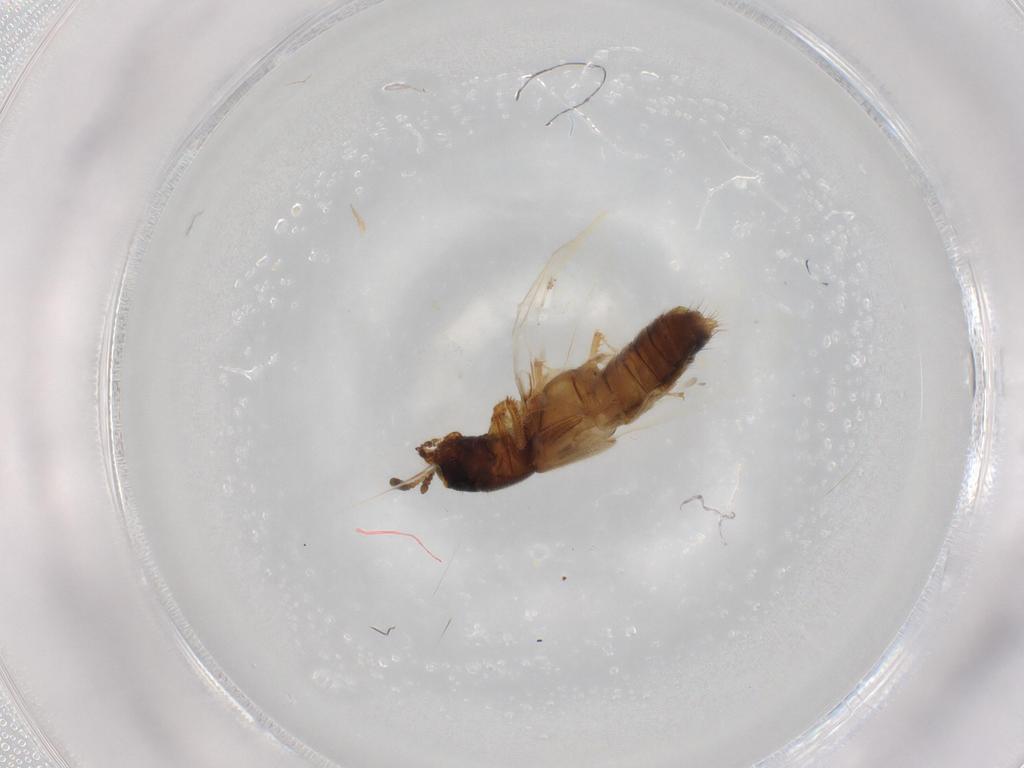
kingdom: Animalia
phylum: Arthropoda
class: Insecta
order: Coleoptera
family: Staphylinidae
